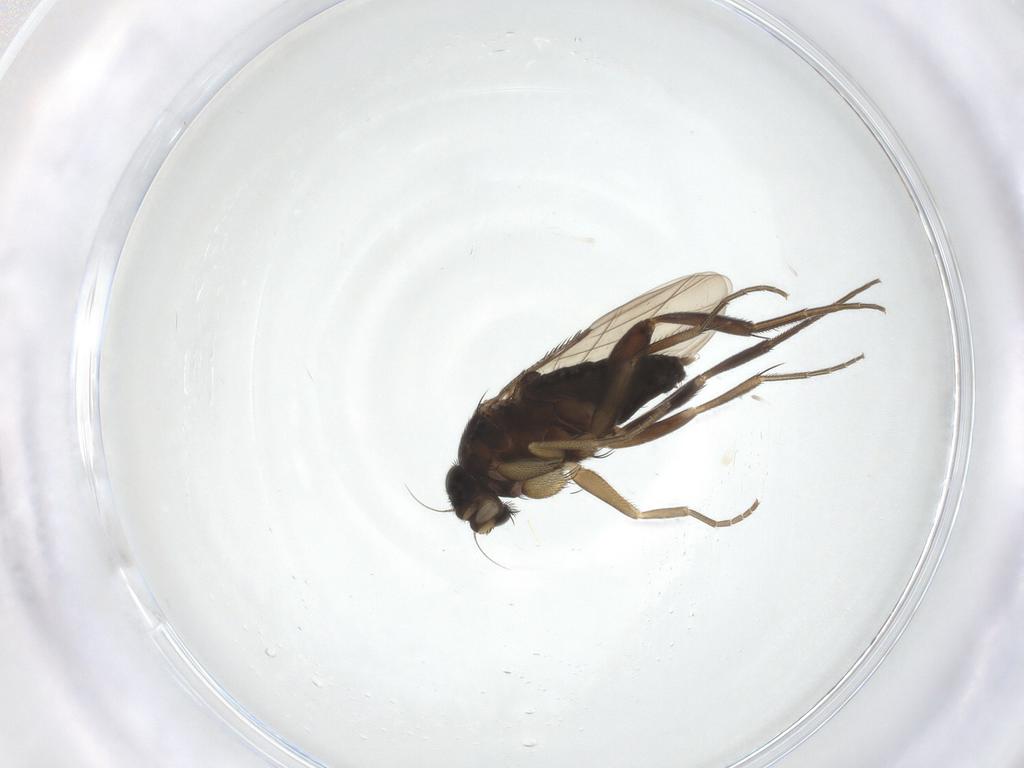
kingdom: Animalia
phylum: Arthropoda
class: Insecta
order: Diptera
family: Phoridae
